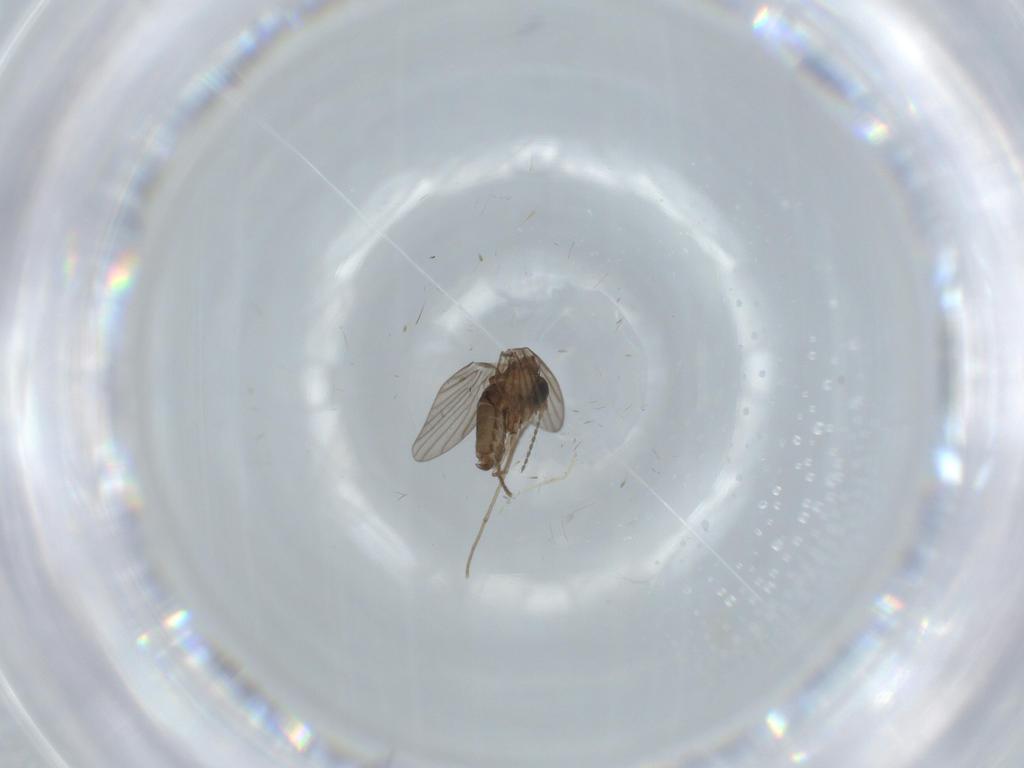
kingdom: Animalia
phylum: Arthropoda
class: Insecta
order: Diptera
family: Psychodidae
